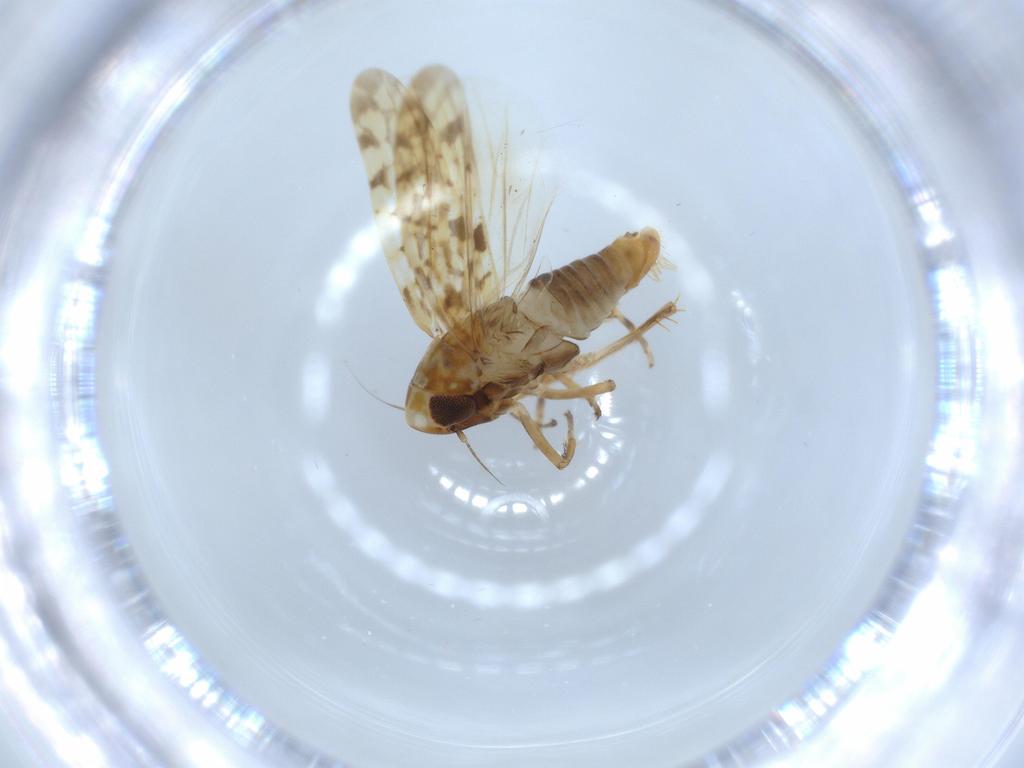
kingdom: Animalia
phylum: Arthropoda
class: Insecta
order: Hemiptera
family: Cicadellidae
